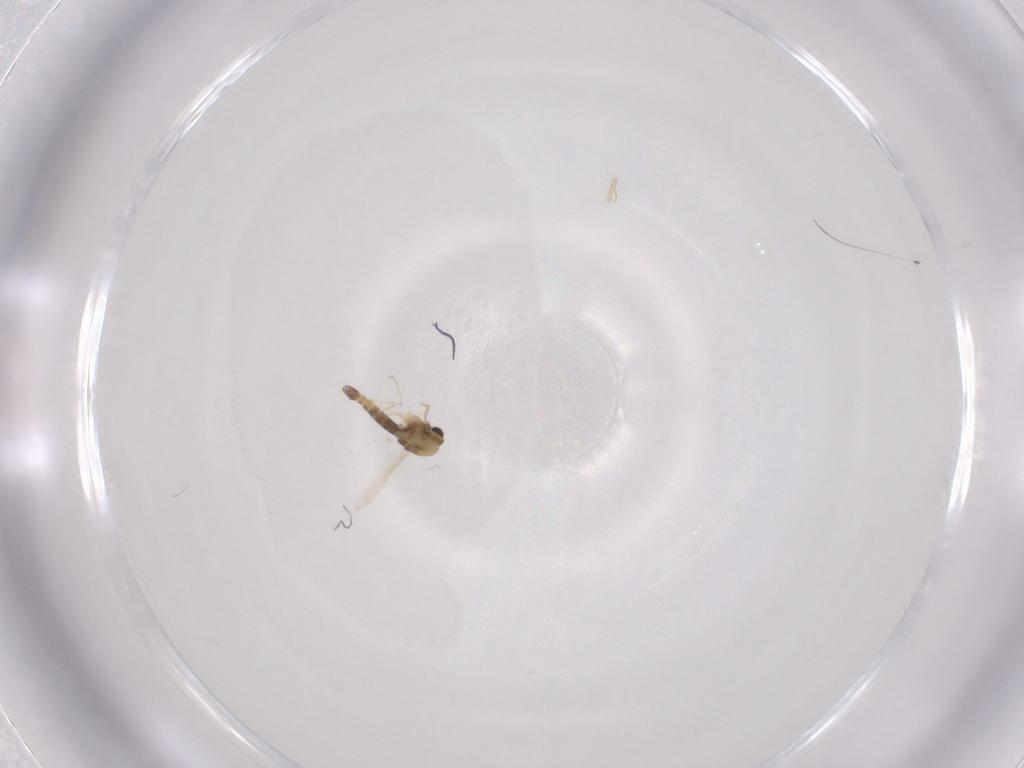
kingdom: Animalia
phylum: Arthropoda
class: Insecta
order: Diptera
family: Chironomidae
